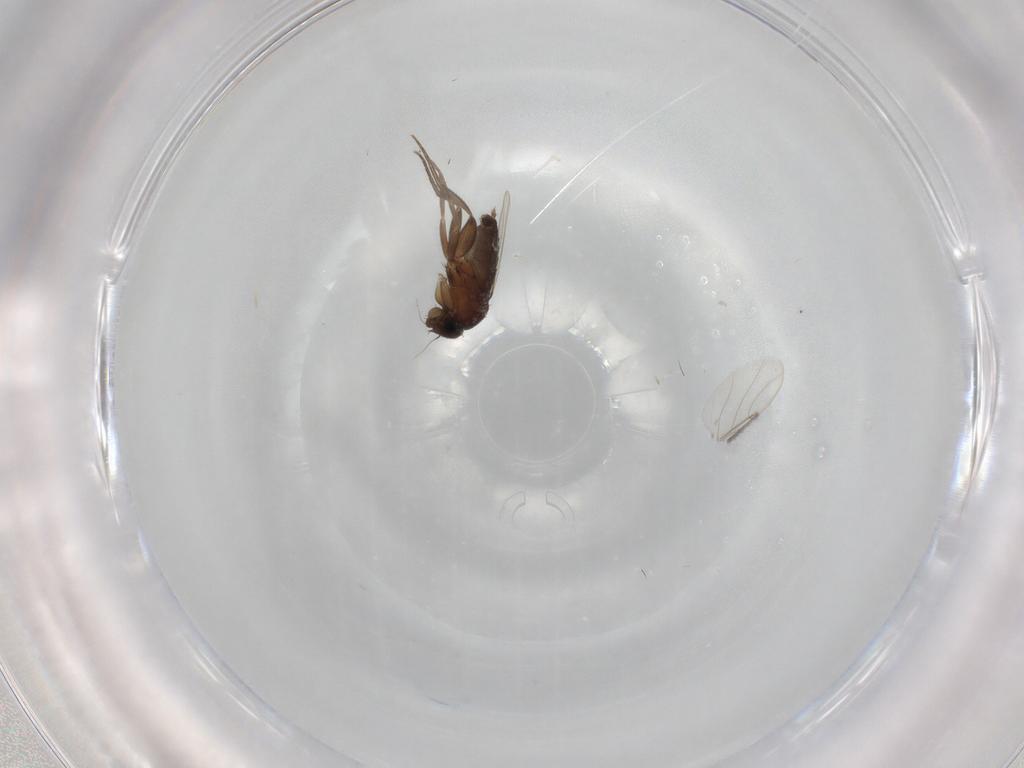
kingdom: Animalia
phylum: Arthropoda
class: Insecta
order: Diptera
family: Phoridae
